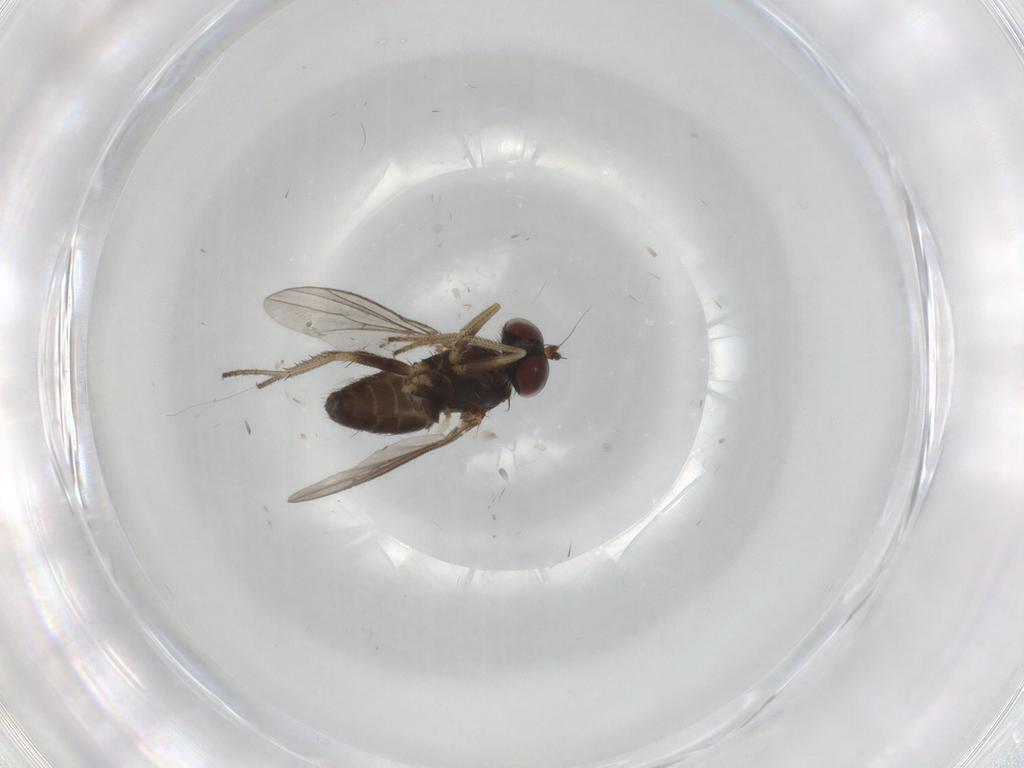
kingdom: Animalia
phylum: Arthropoda
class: Insecta
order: Diptera
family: Dolichopodidae
